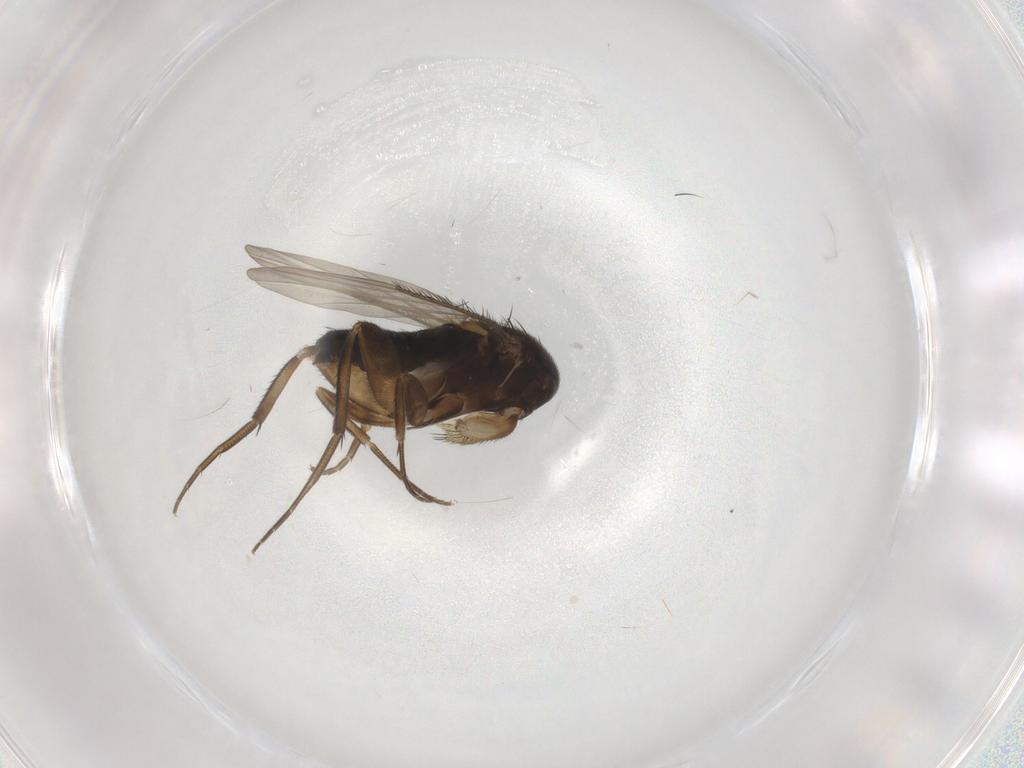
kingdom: Animalia
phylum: Arthropoda
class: Insecta
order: Diptera
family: Phoridae
